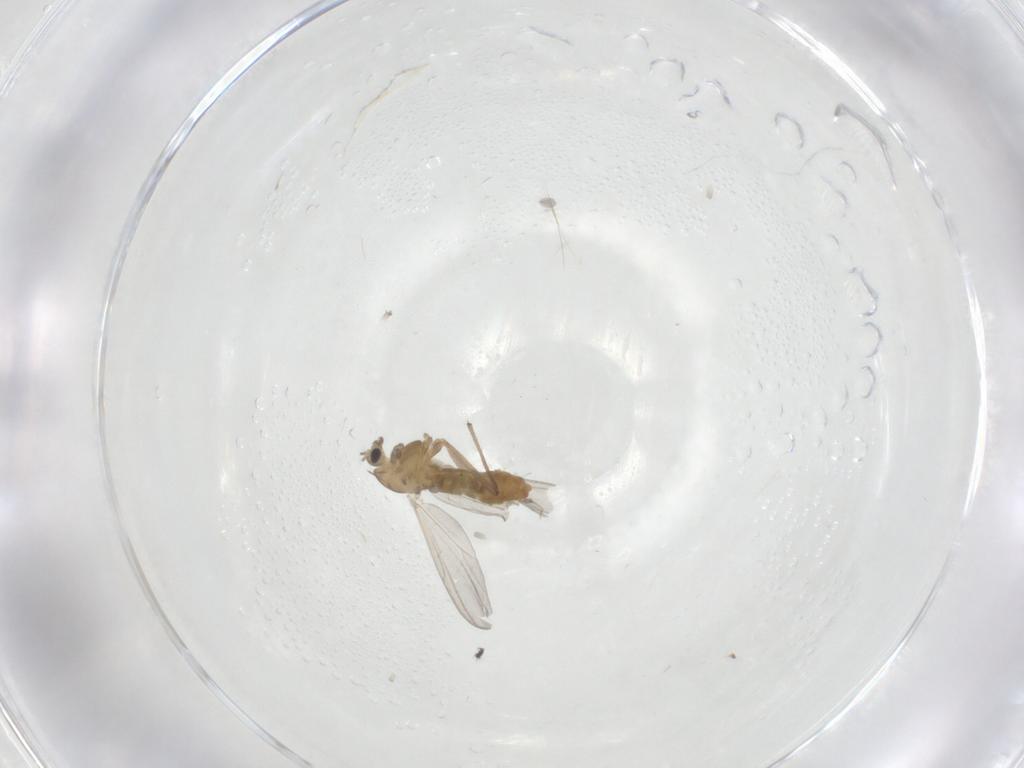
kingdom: Animalia
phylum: Arthropoda
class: Insecta
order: Diptera
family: Chironomidae
